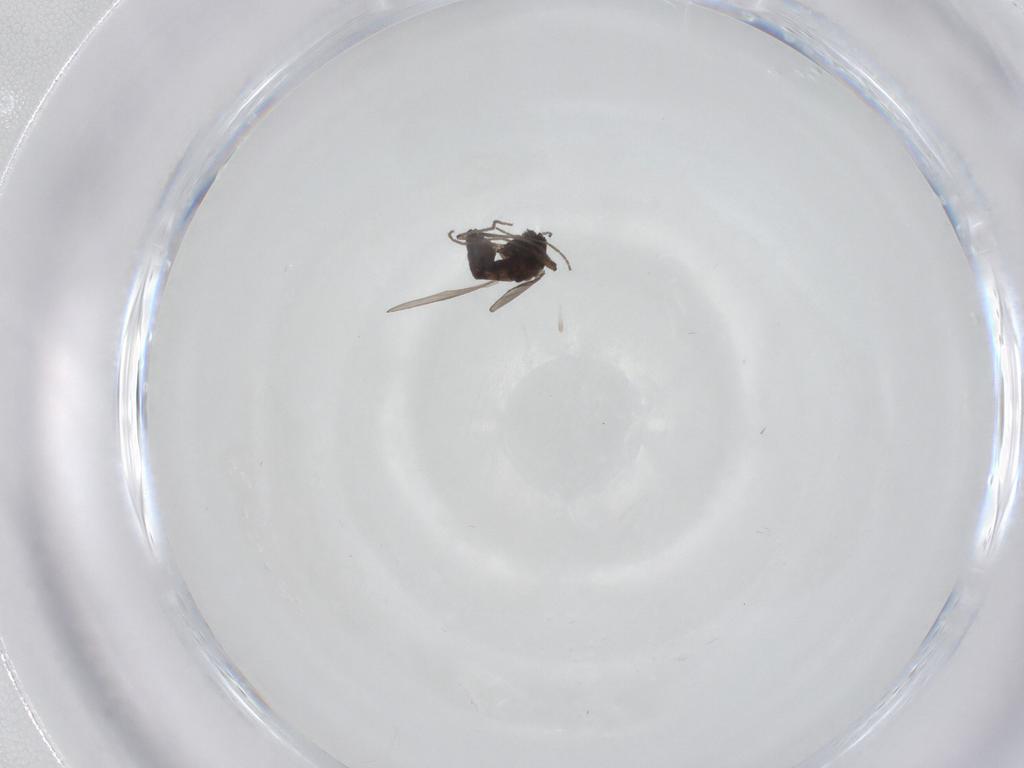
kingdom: Animalia
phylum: Arthropoda
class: Insecta
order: Diptera
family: Chironomidae
